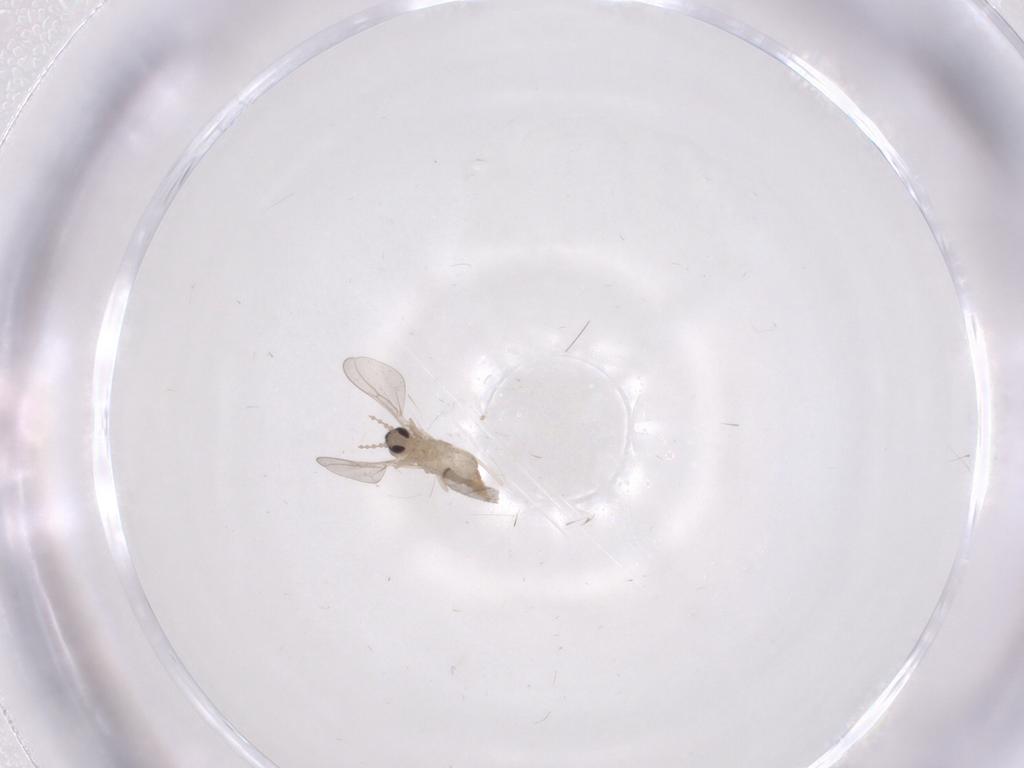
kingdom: Animalia
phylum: Arthropoda
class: Insecta
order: Diptera
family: Cecidomyiidae
